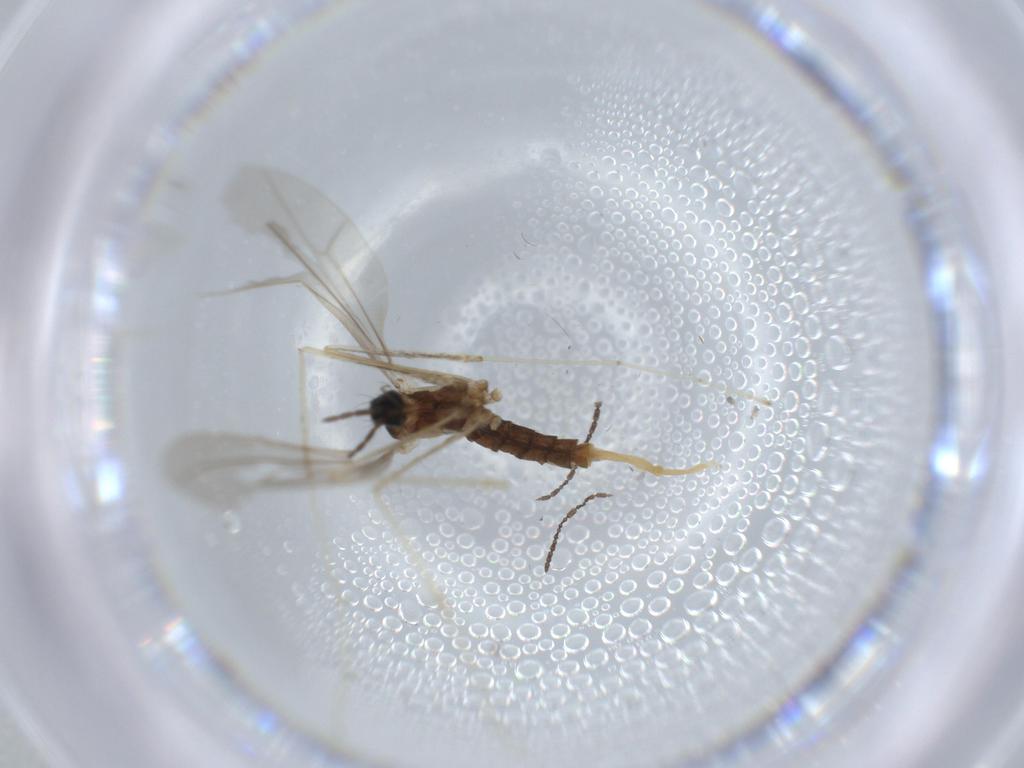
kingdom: Animalia
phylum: Arthropoda
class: Insecta
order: Diptera
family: Cecidomyiidae
